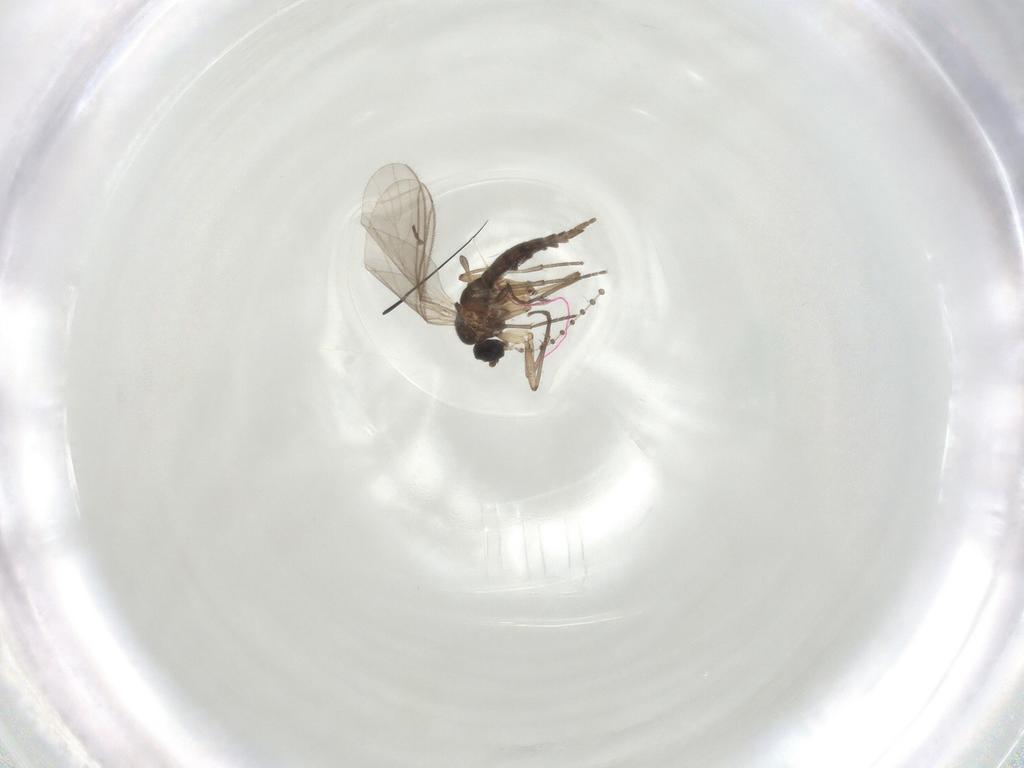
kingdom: Animalia
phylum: Arthropoda
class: Insecta
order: Diptera
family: Sciaridae
